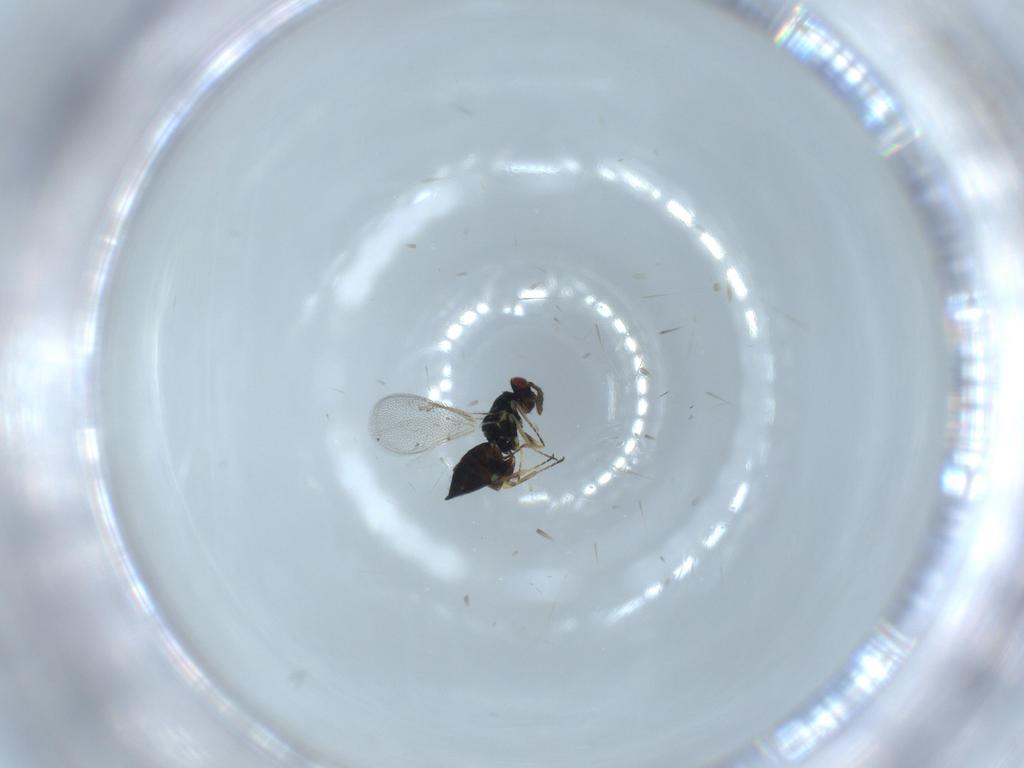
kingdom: Animalia
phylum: Arthropoda
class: Insecta
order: Hymenoptera
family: Eulophidae
